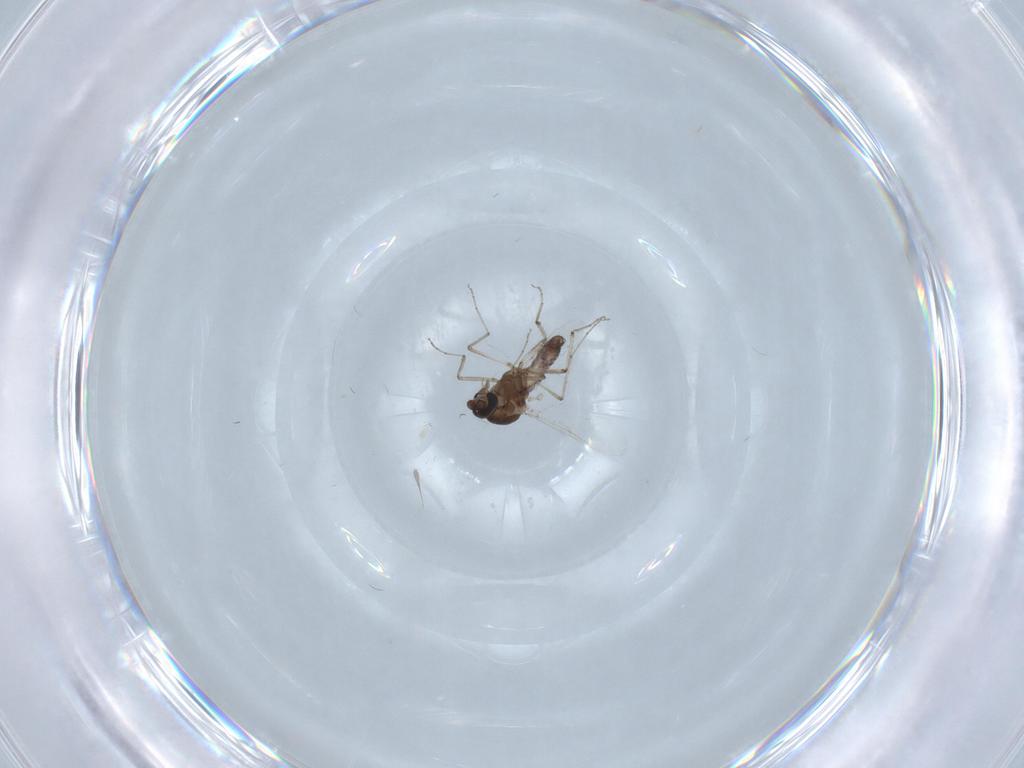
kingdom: Animalia
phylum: Arthropoda
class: Insecta
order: Diptera
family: Ceratopogonidae
